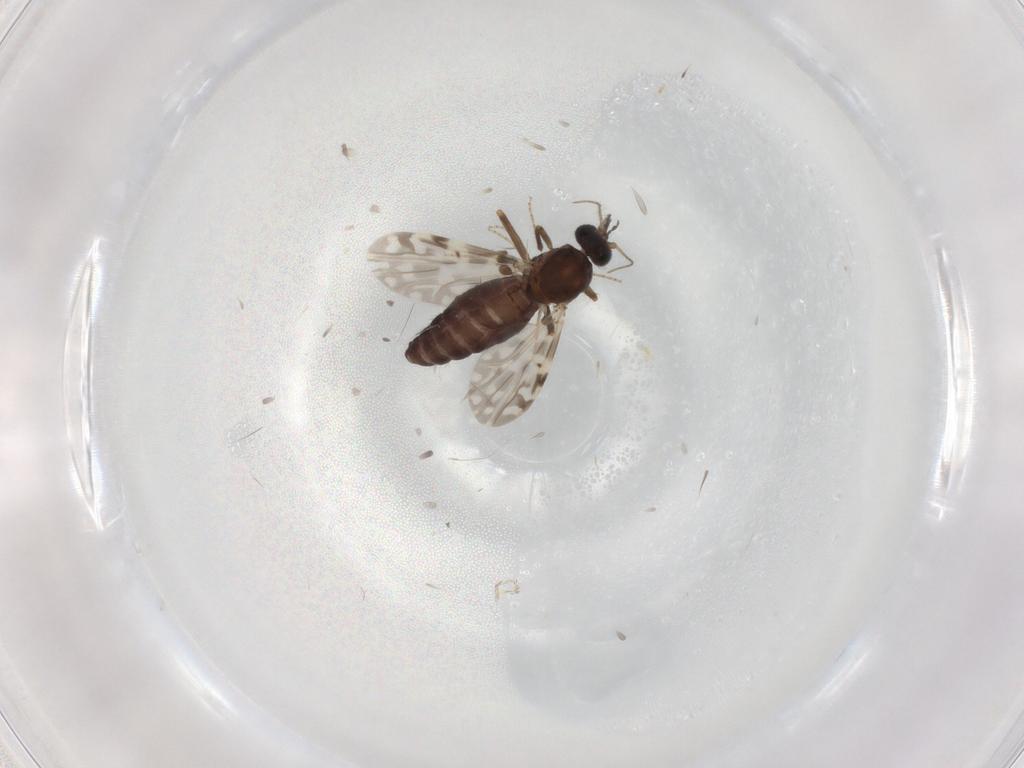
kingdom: Animalia
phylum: Arthropoda
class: Insecta
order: Diptera
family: Ceratopogonidae
